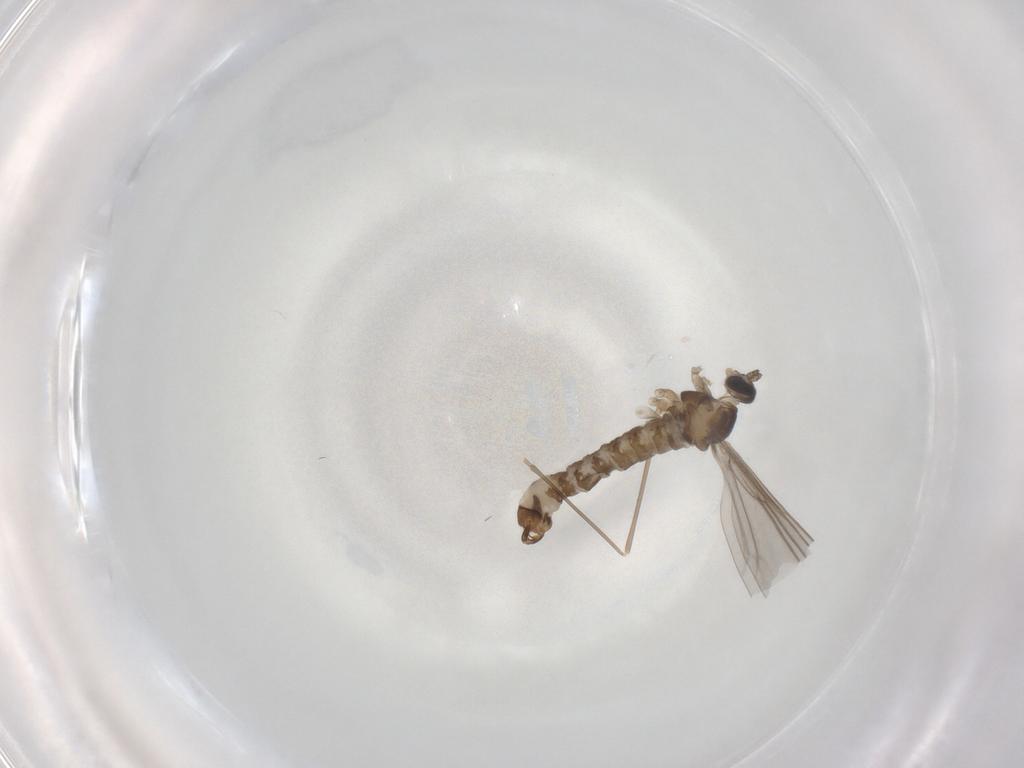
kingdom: Animalia
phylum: Arthropoda
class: Insecta
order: Diptera
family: Cecidomyiidae
